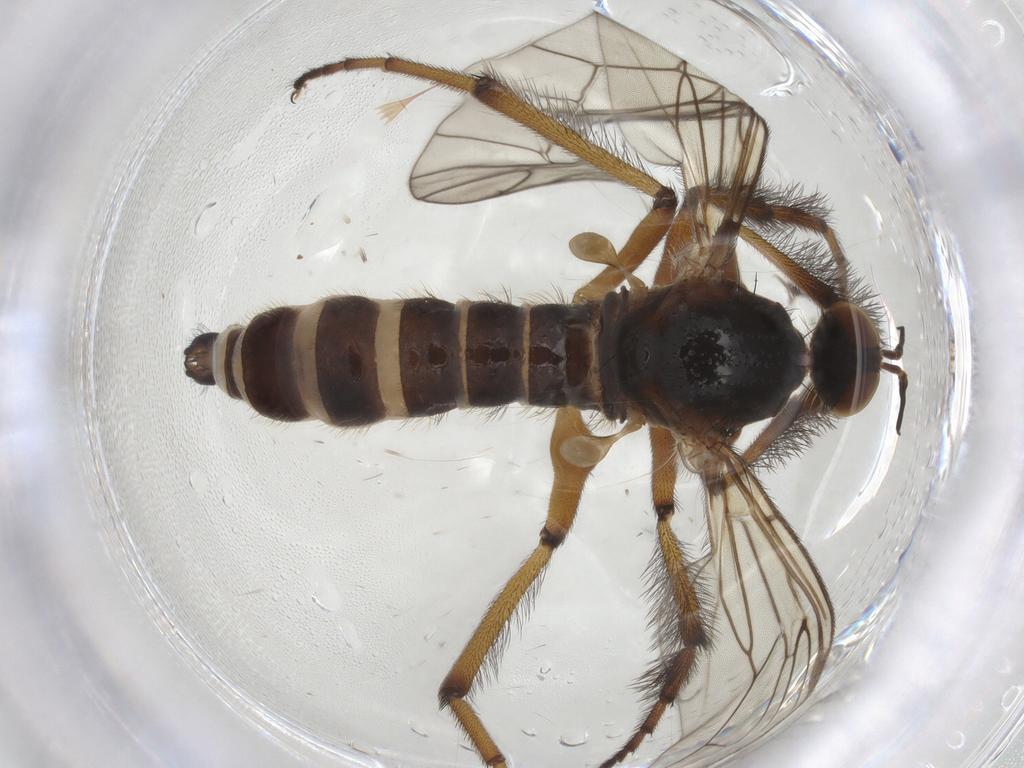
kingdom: Animalia
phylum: Arthropoda
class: Insecta
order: Diptera
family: Empididae
